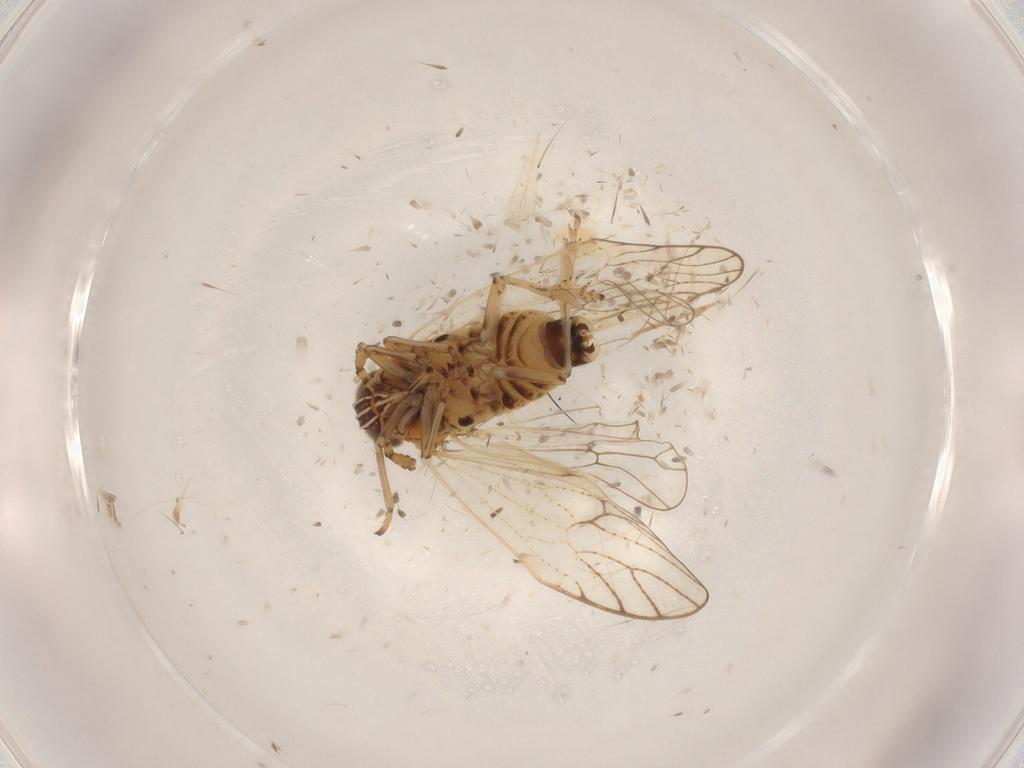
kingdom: Animalia
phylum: Arthropoda
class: Insecta
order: Hemiptera
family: Delphacidae
